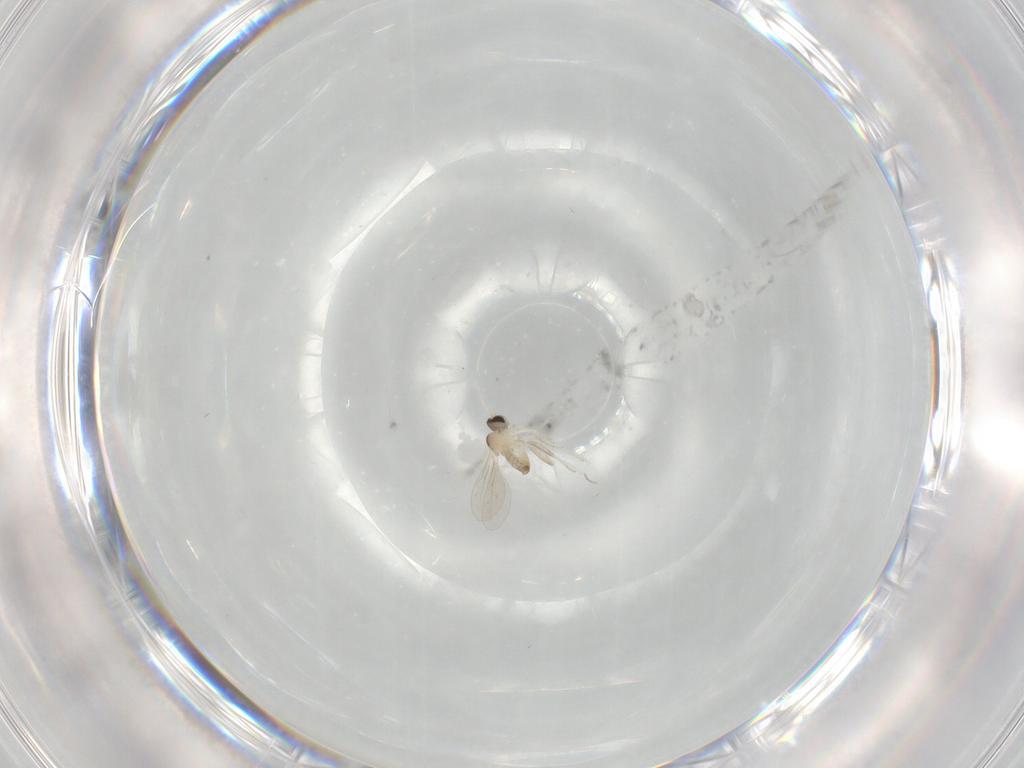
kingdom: Animalia
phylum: Arthropoda
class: Insecta
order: Diptera
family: Cecidomyiidae
